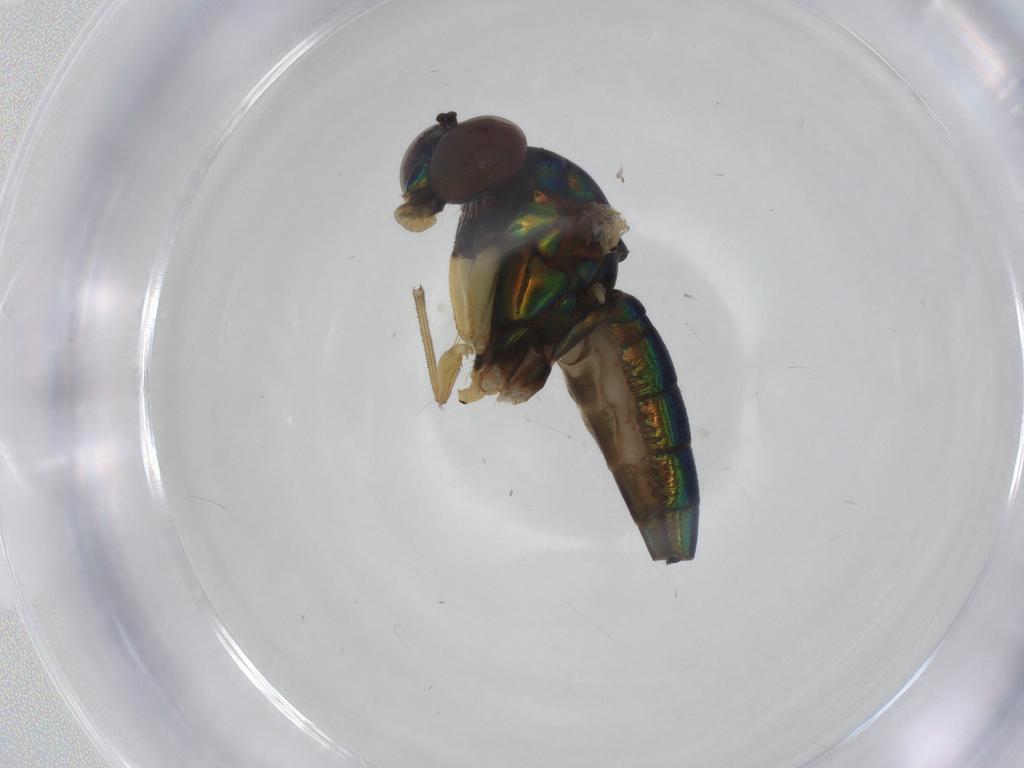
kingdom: Animalia
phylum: Arthropoda
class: Insecta
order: Diptera
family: Dolichopodidae
